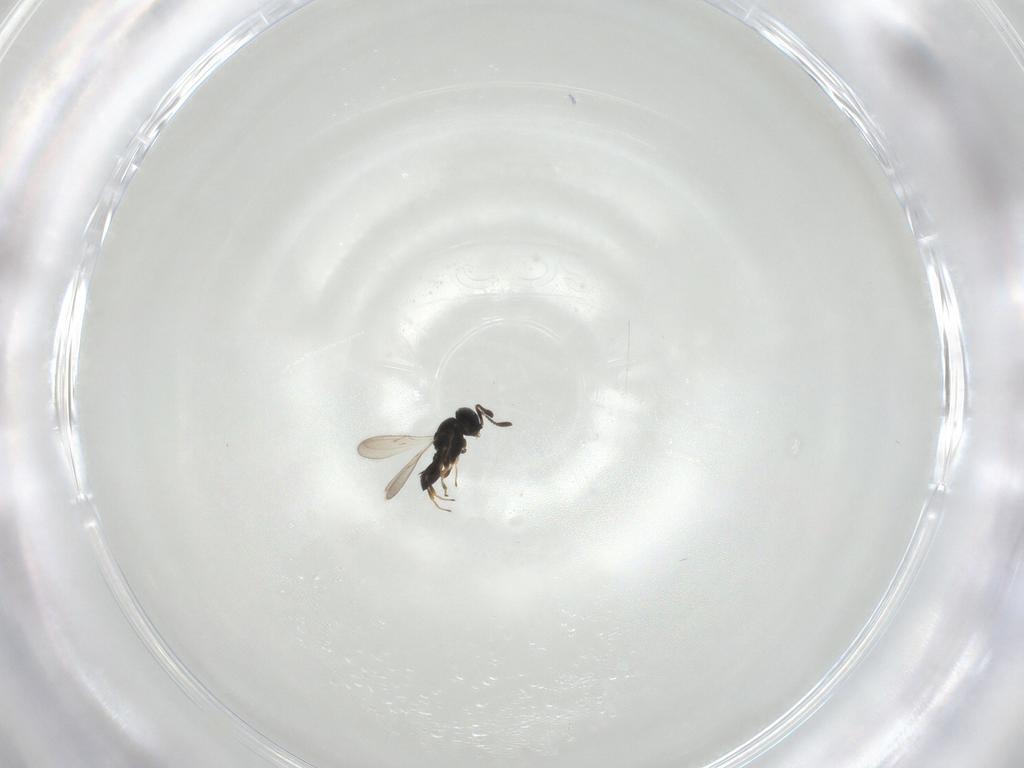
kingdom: Animalia
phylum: Arthropoda
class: Insecta
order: Hymenoptera
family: Scelionidae
